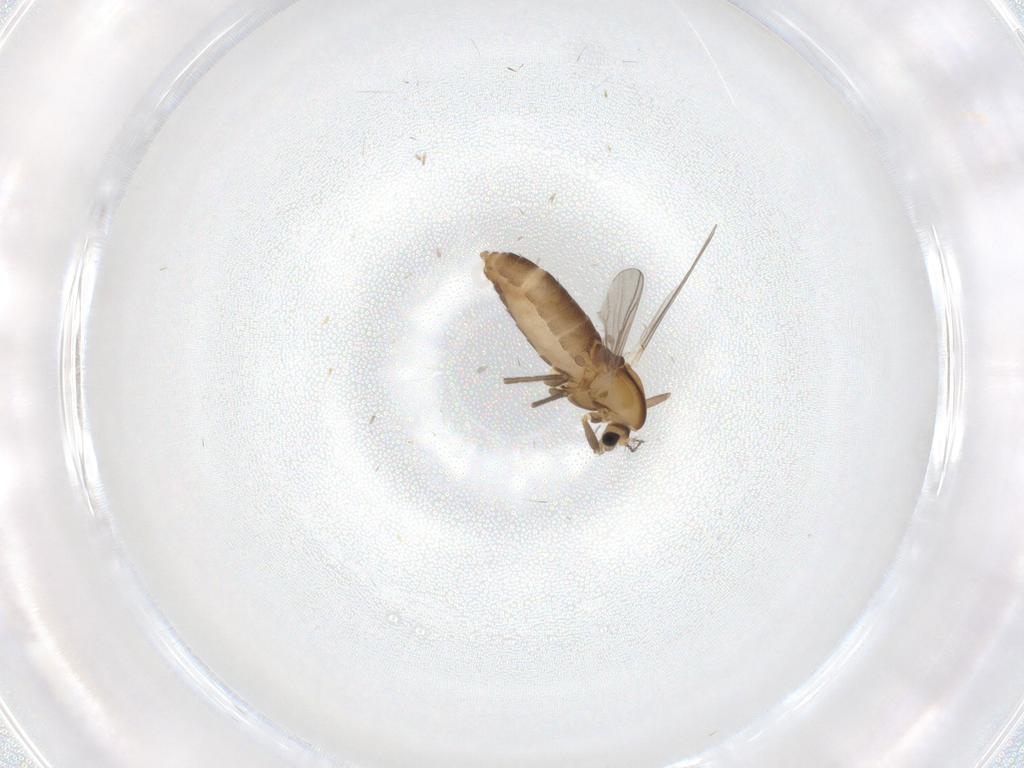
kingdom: Animalia
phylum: Arthropoda
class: Insecta
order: Diptera
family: Chironomidae
